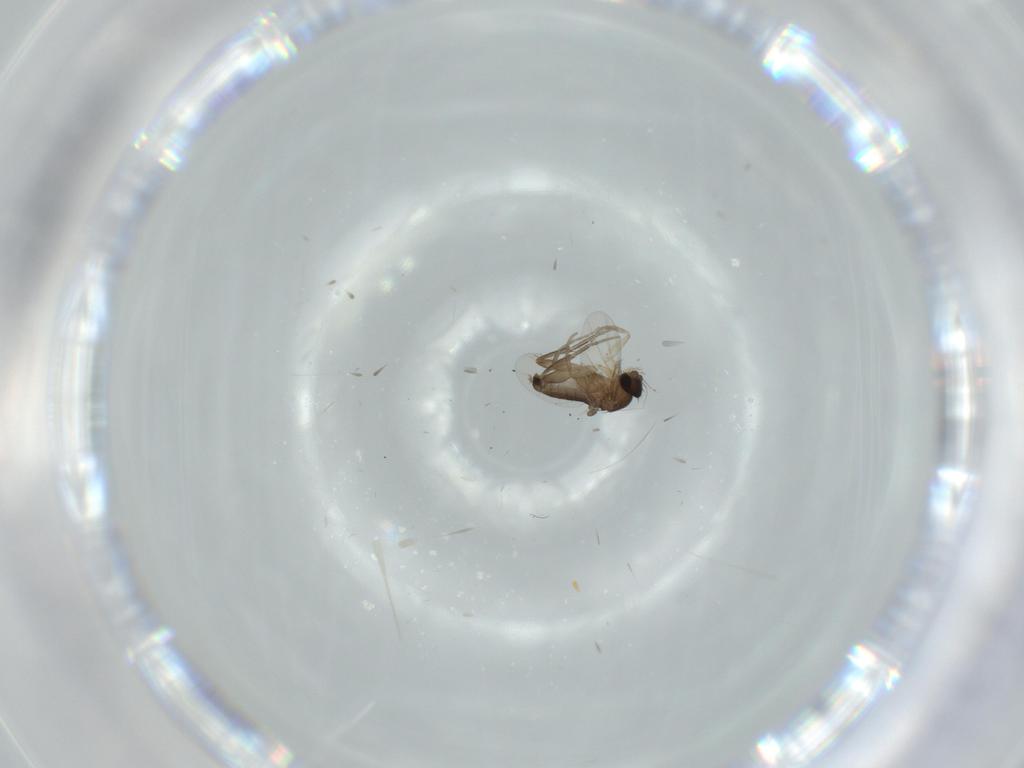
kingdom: Animalia
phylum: Arthropoda
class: Insecta
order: Diptera
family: Phoridae
